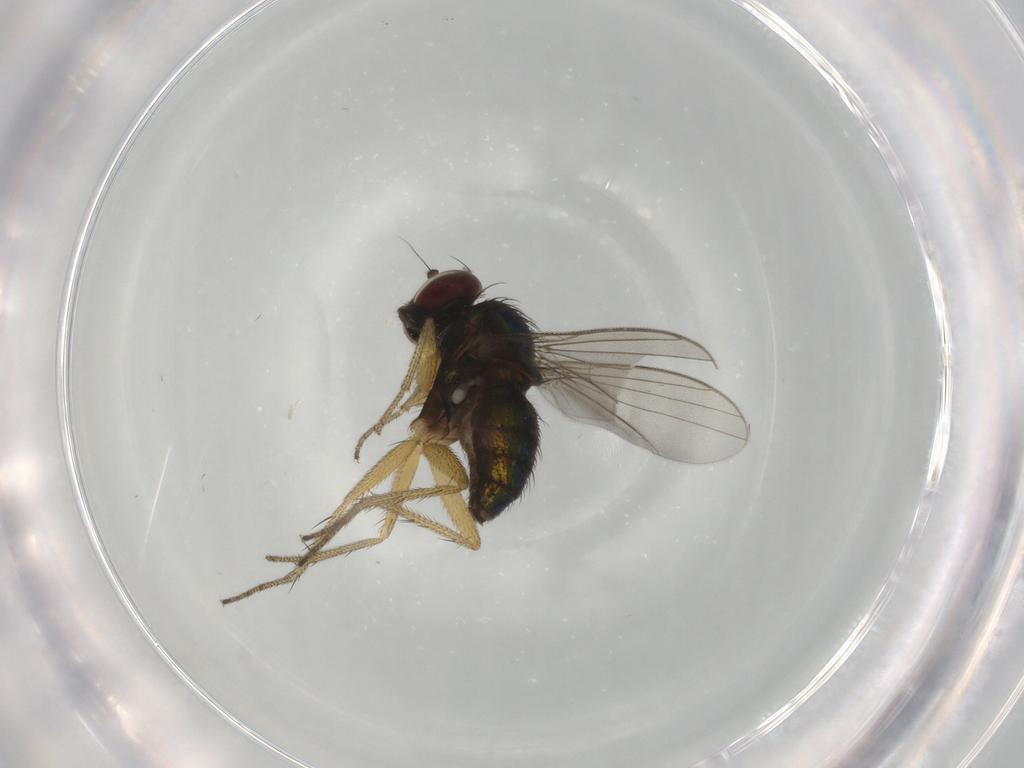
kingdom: Animalia
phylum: Arthropoda
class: Insecta
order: Diptera
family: Dolichopodidae
